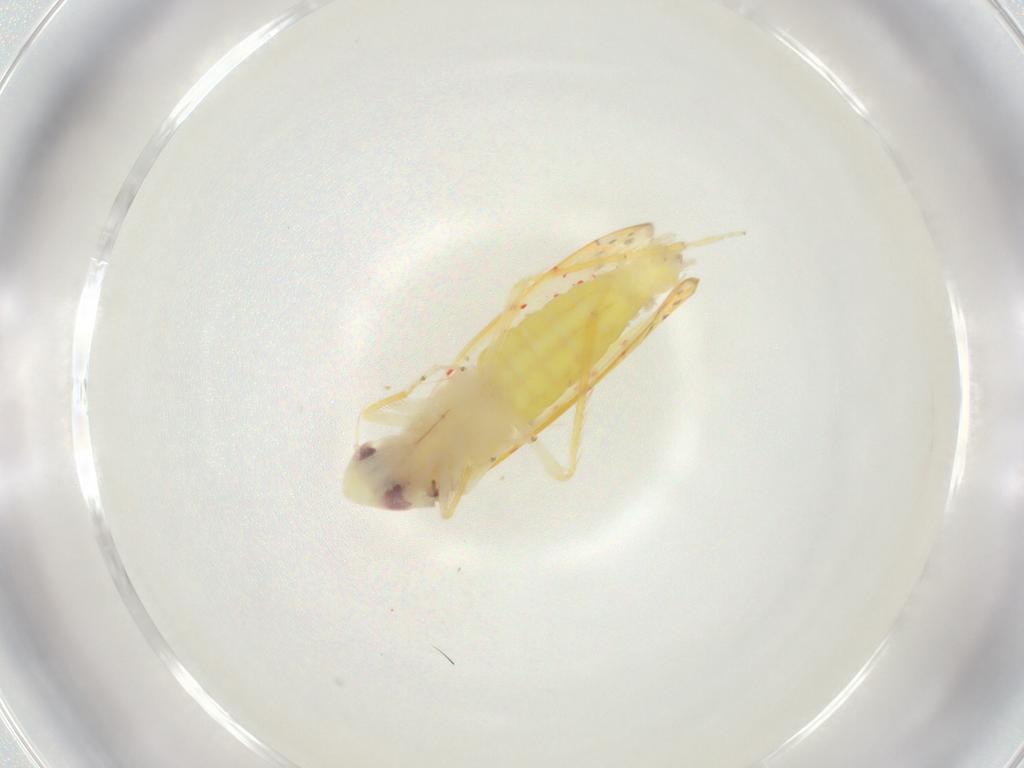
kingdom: Animalia
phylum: Arthropoda
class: Insecta
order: Hemiptera
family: Cicadellidae
